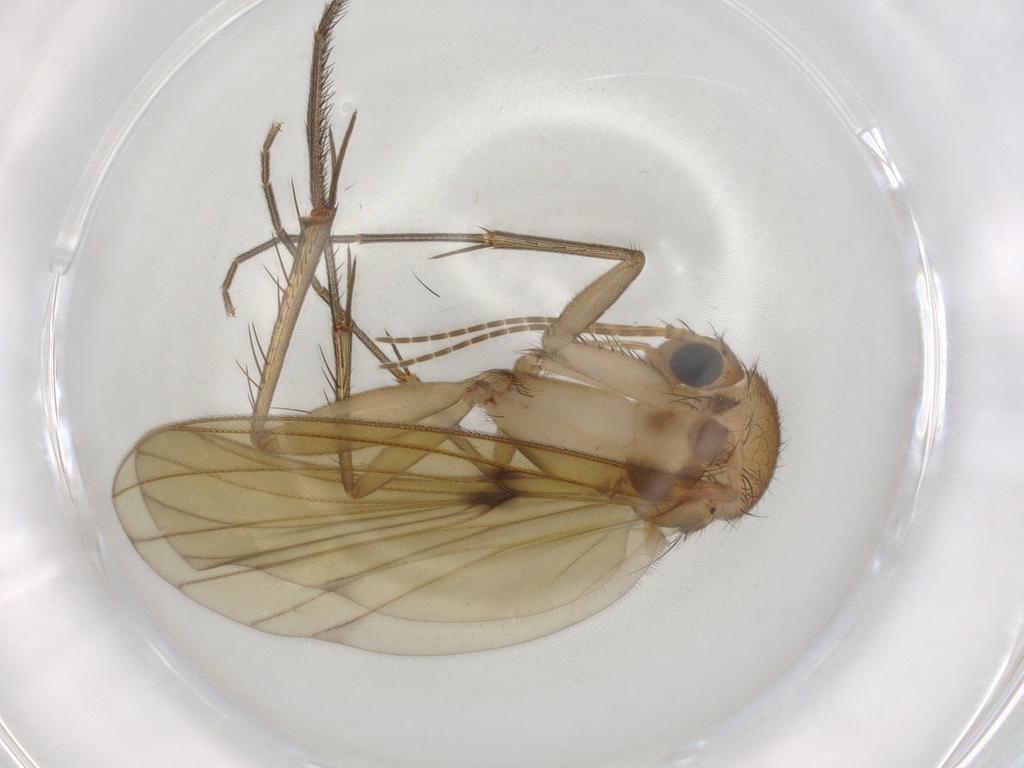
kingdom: Animalia
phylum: Arthropoda
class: Insecta
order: Diptera
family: Mycetophilidae
